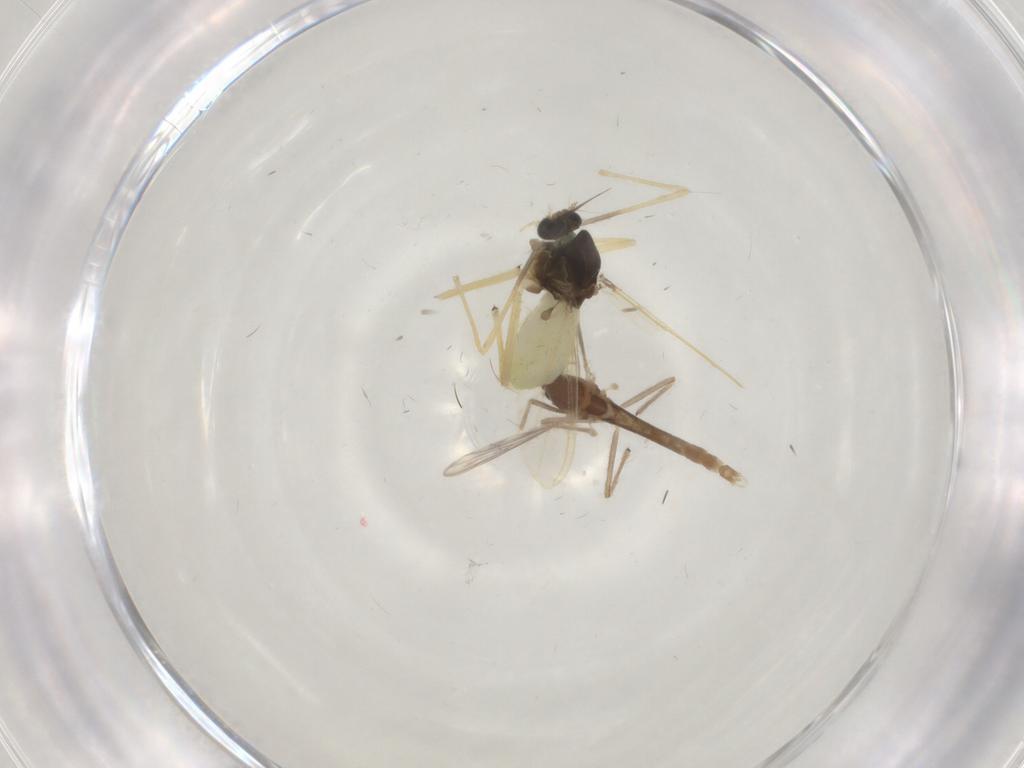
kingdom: Animalia
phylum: Arthropoda
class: Insecta
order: Diptera
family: Chironomidae
